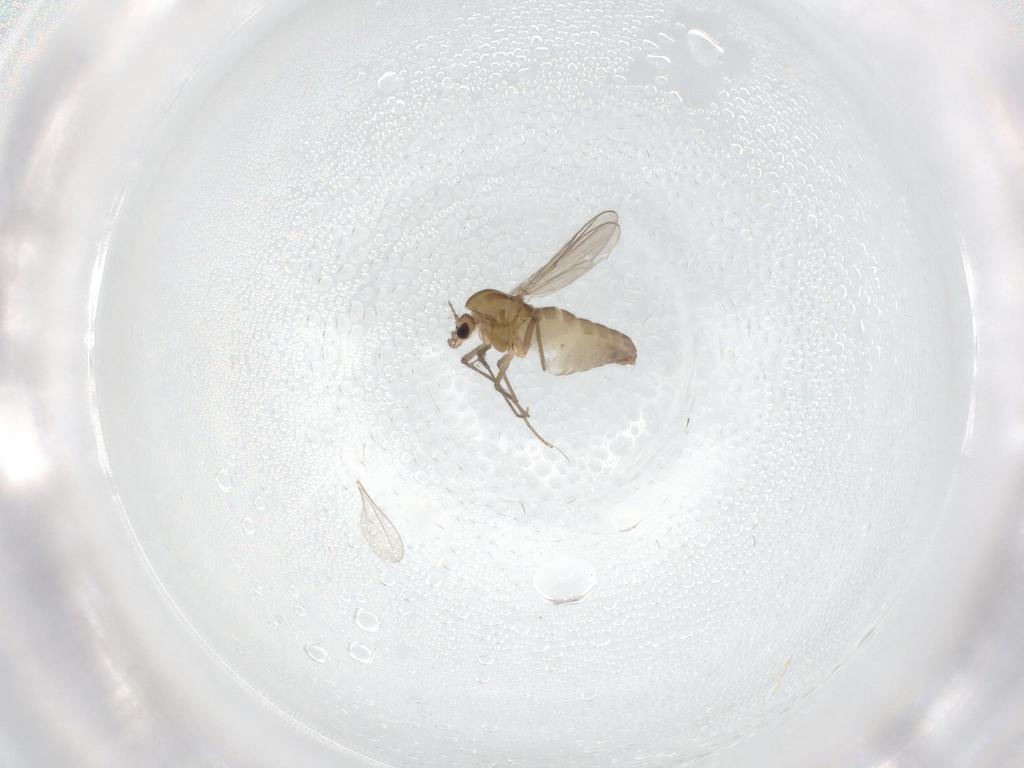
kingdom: Animalia
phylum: Arthropoda
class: Insecta
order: Diptera
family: Chironomidae
